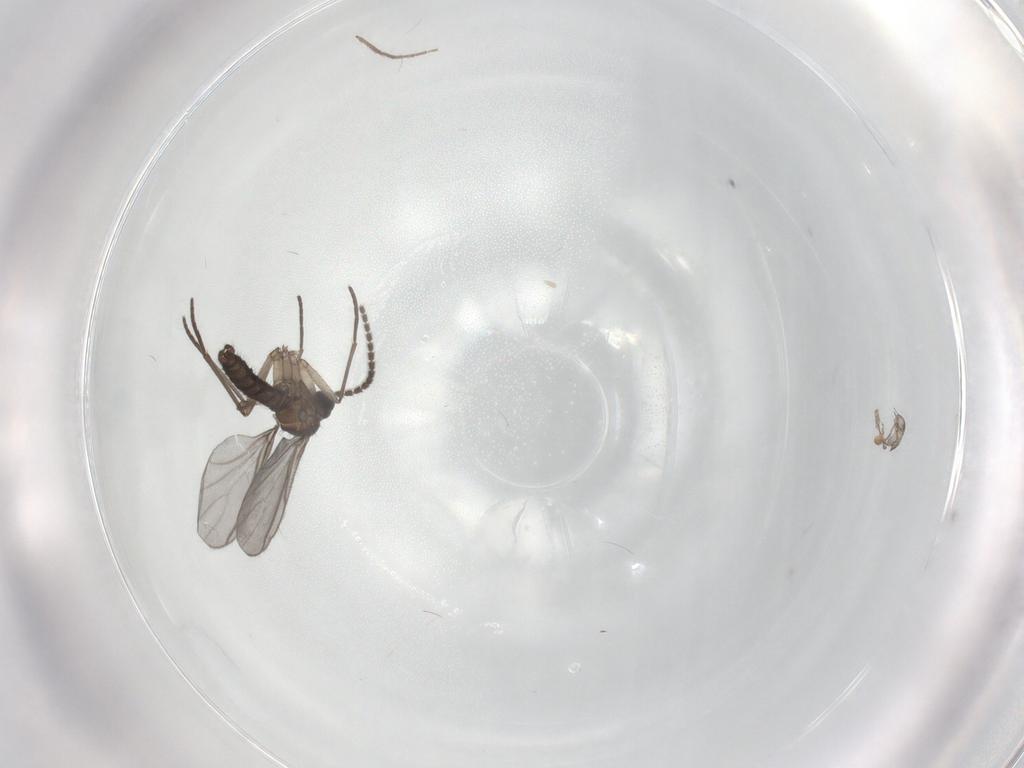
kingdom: Animalia
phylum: Arthropoda
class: Insecta
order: Diptera
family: Chironomidae
